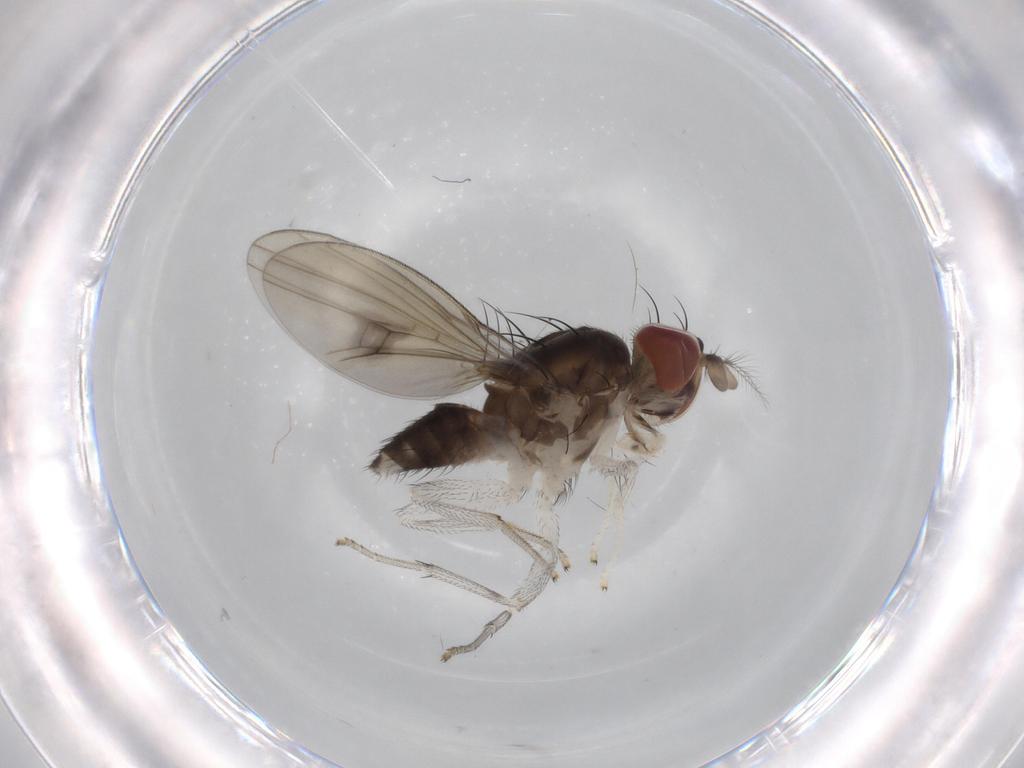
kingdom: Animalia
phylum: Arthropoda
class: Insecta
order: Diptera
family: Lauxaniidae
